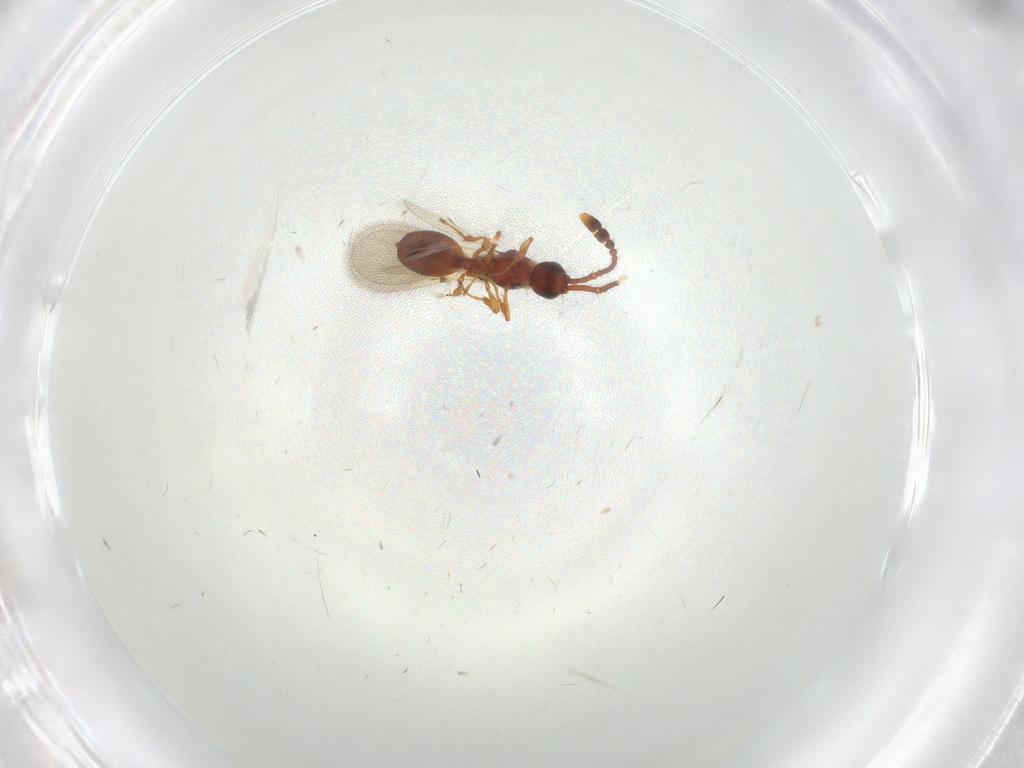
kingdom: Animalia
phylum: Arthropoda
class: Insecta
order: Hymenoptera
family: Diapriidae
